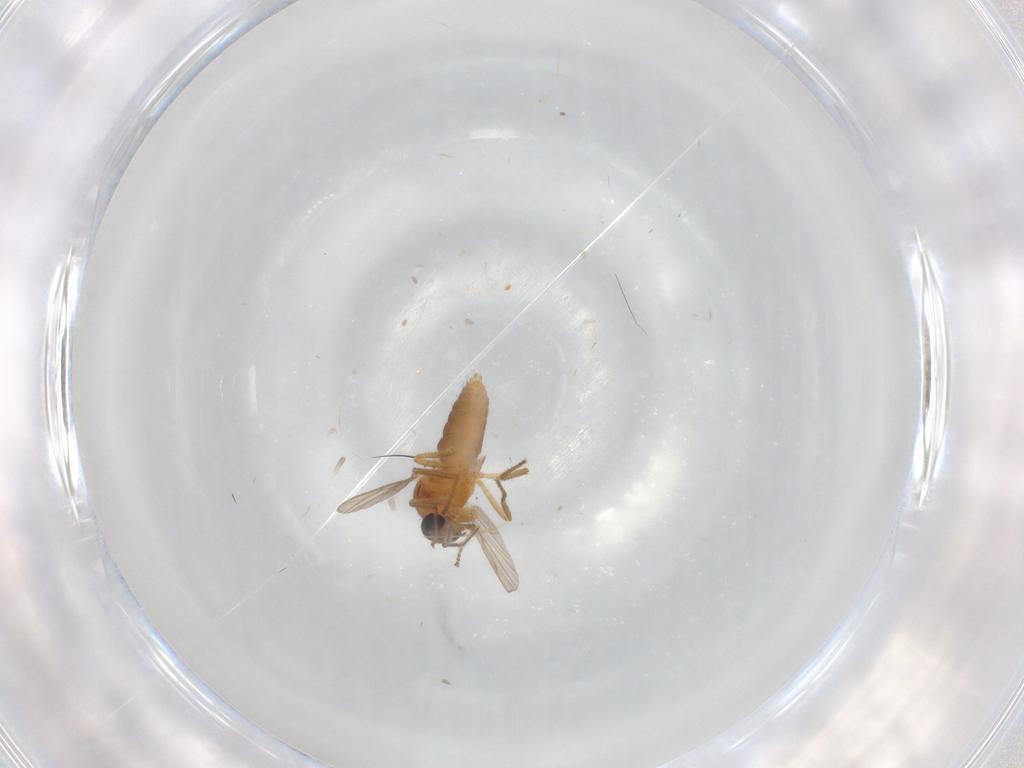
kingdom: Animalia
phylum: Arthropoda
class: Insecta
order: Diptera
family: Ceratopogonidae
